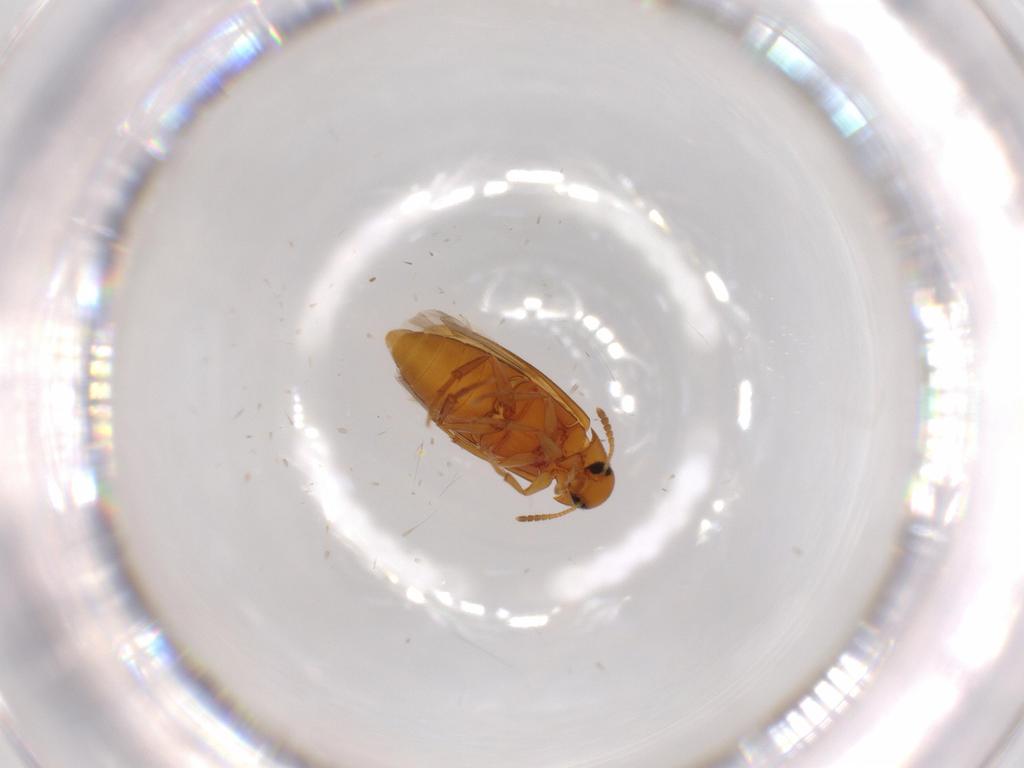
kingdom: Animalia
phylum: Arthropoda
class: Insecta
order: Coleoptera
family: Scraptiidae
